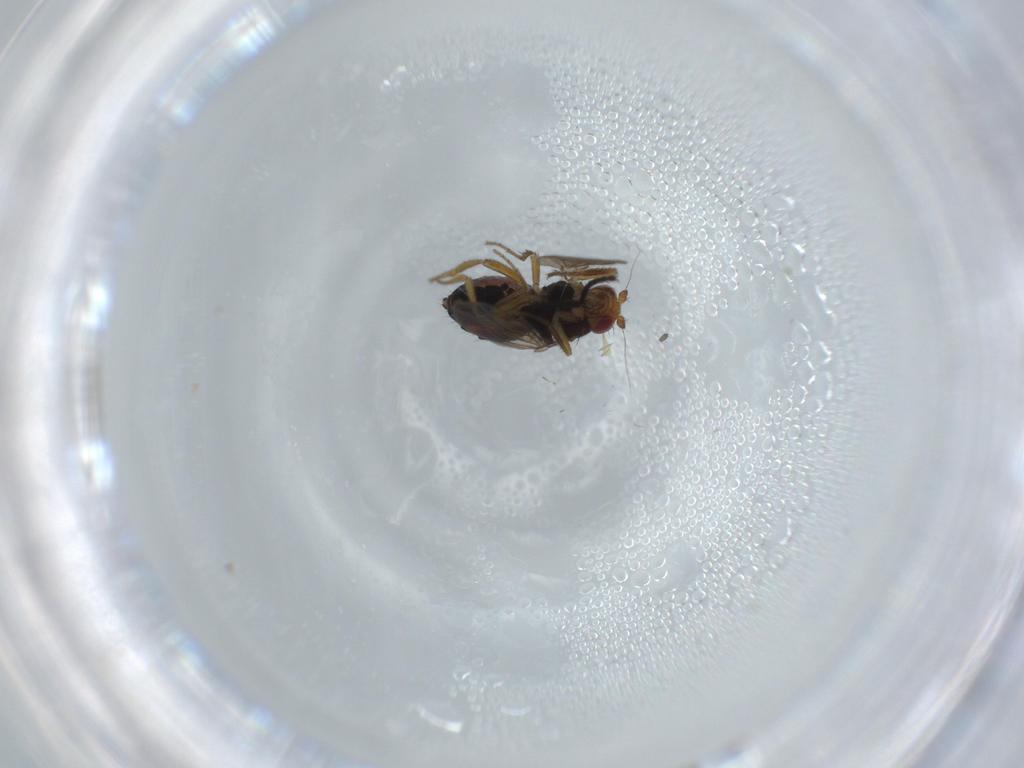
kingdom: Animalia
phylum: Arthropoda
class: Insecta
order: Diptera
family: Sphaeroceridae
